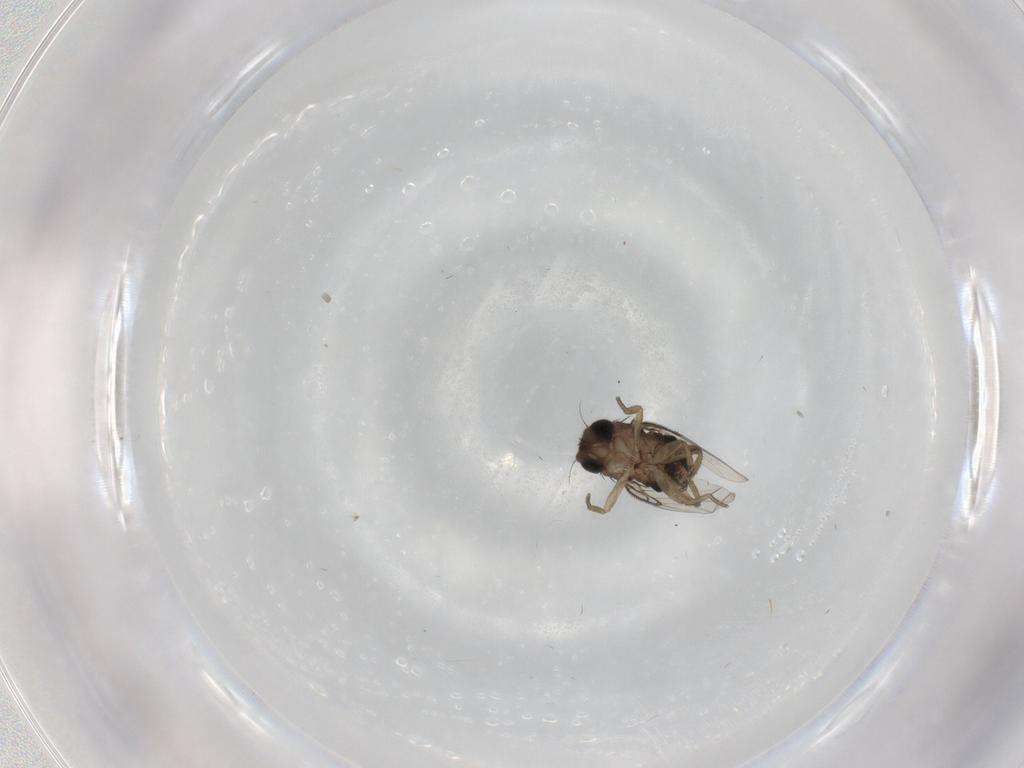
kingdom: Animalia
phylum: Arthropoda
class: Insecta
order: Diptera
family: Phoridae
